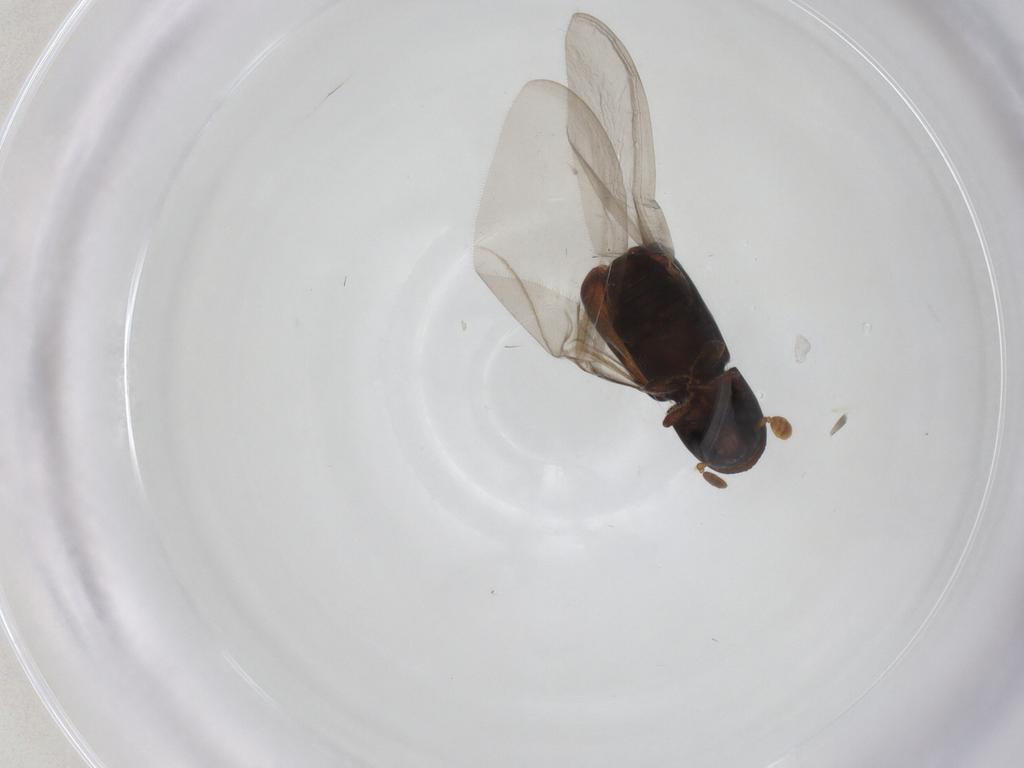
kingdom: Animalia
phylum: Arthropoda
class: Insecta
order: Coleoptera
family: Curculionidae
